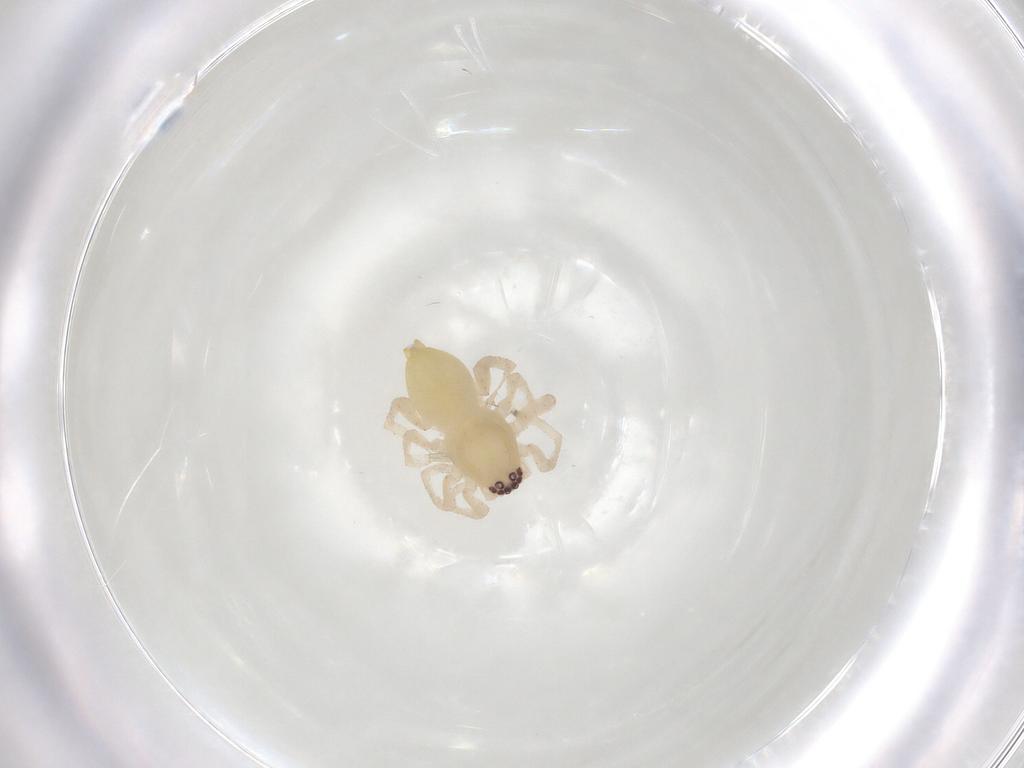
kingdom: Animalia
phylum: Arthropoda
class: Arachnida
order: Araneae
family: Clubionidae
